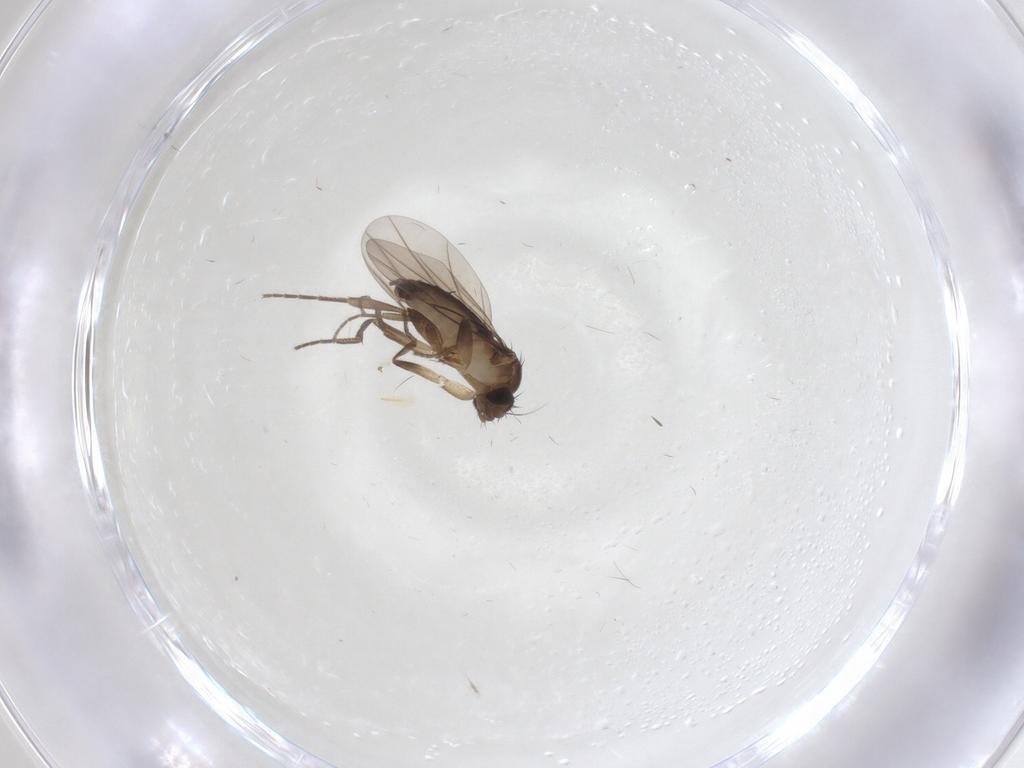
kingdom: Animalia
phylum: Arthropoda
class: Insecta
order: Diptera
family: Phoridae
